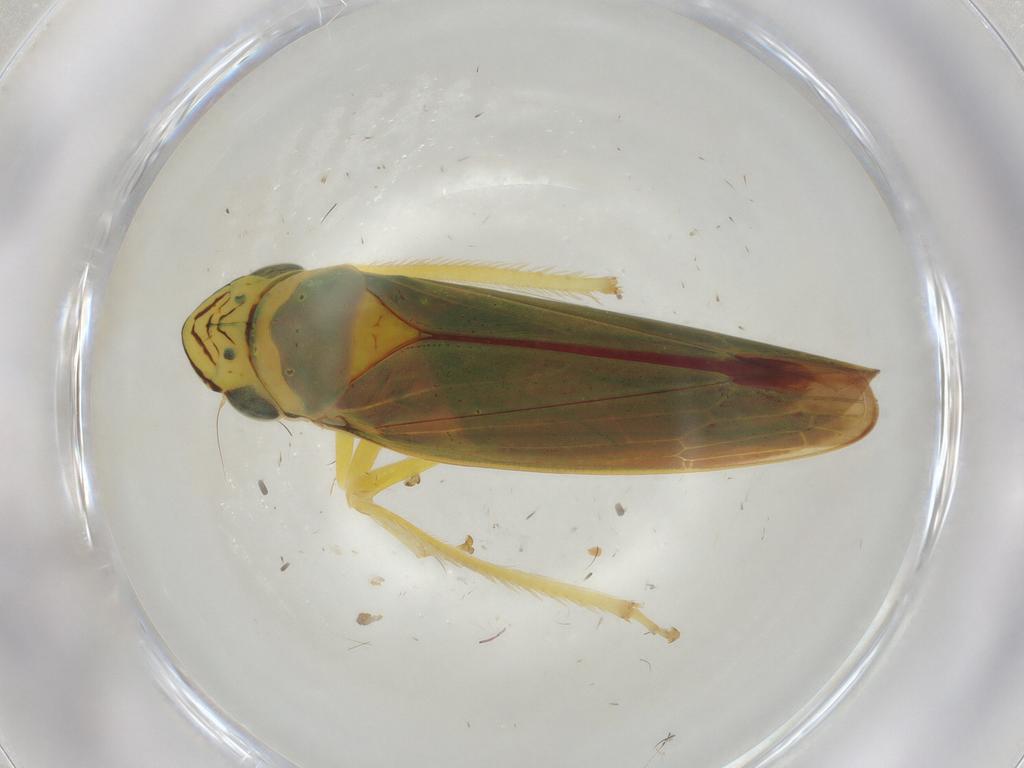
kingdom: Animalia
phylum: Arthropoda
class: Insecta
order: Hemiptera
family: Cicadellidae
